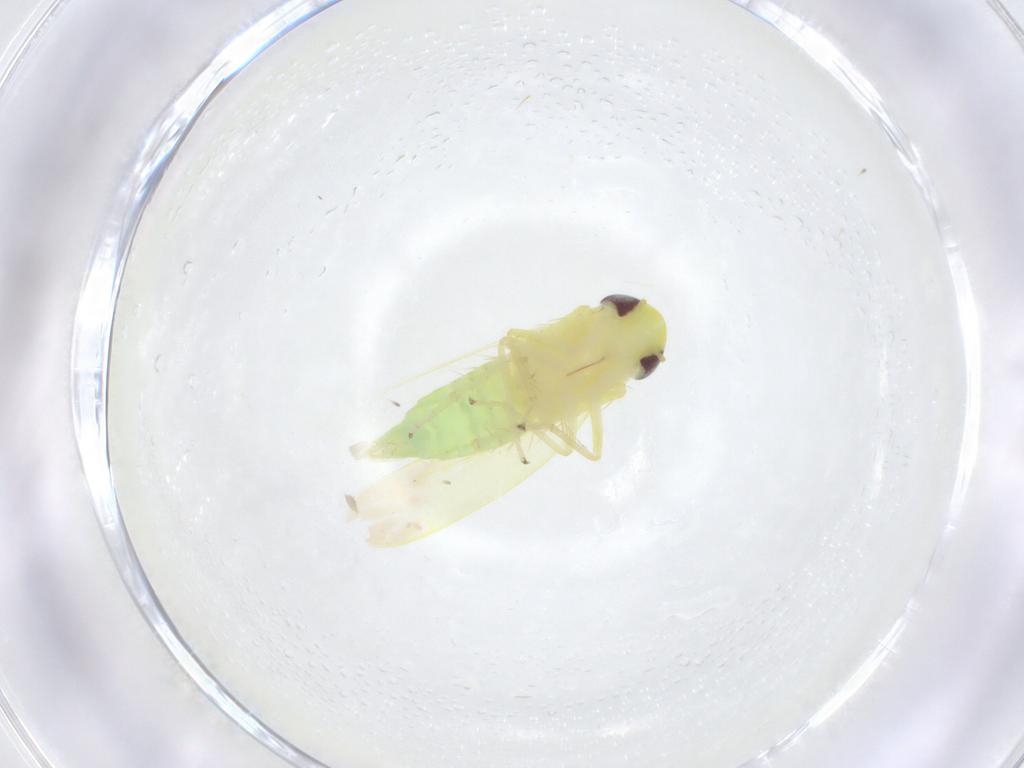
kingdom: Animalia
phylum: Arthropoda
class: Insecta
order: Hemiptera
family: Cicadellidae
